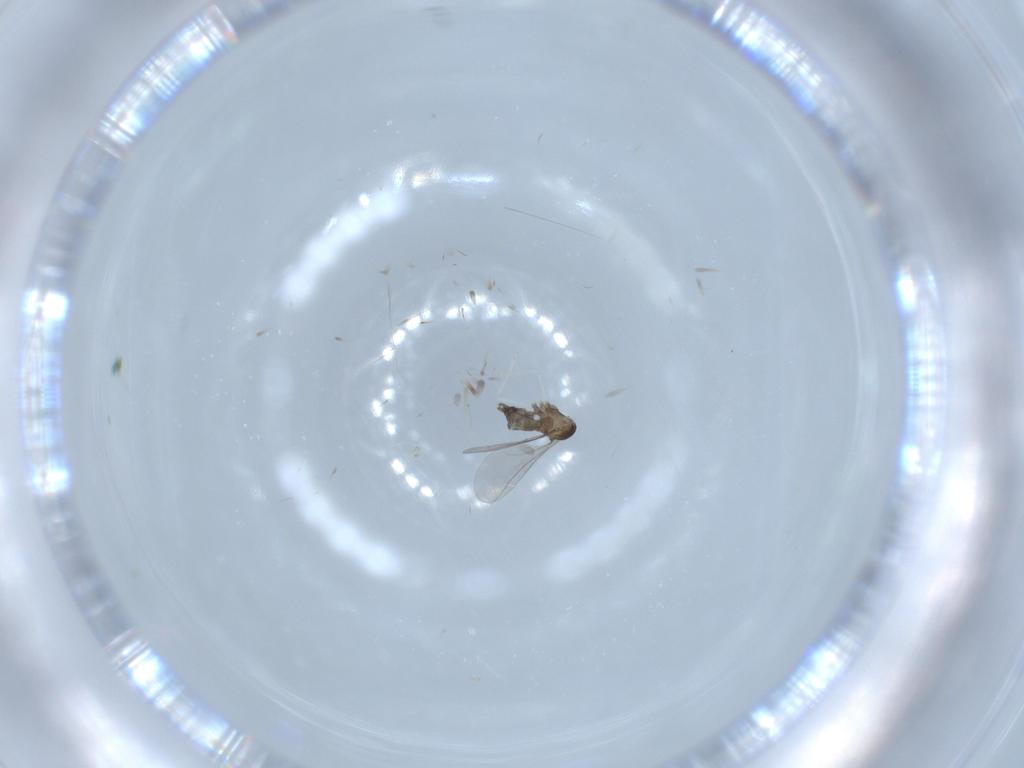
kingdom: Animalia
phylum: Arthropoda
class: Insecta
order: Diptera
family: Cecidomyiidae
